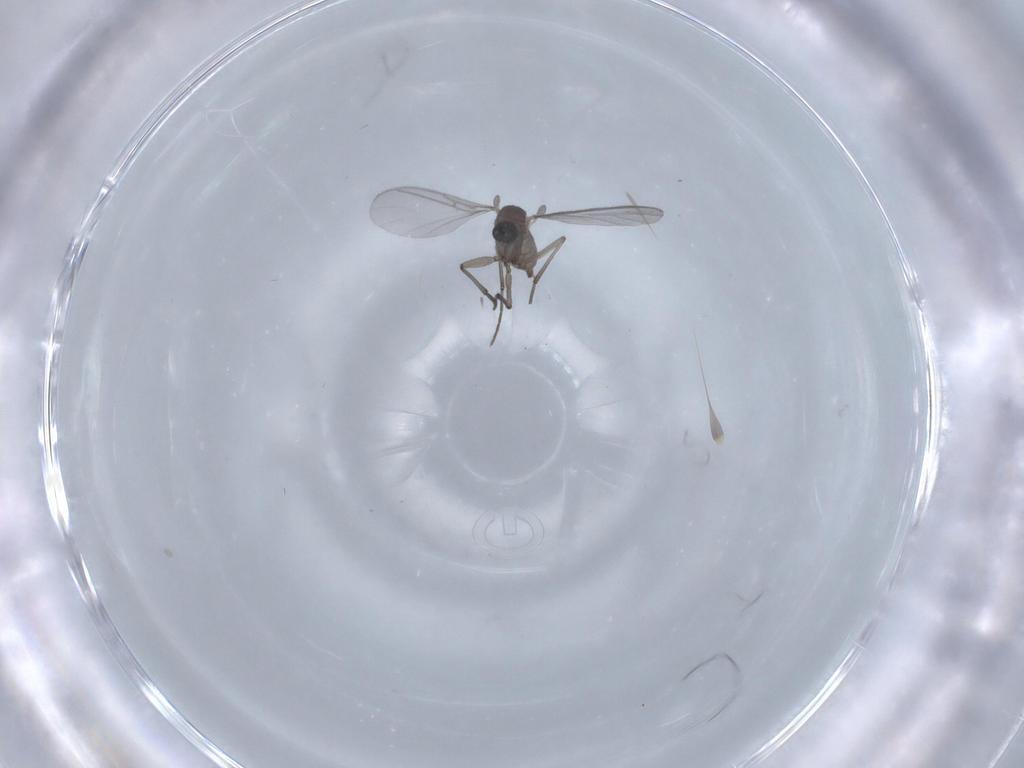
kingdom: Animalia
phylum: Arthropoda
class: Insecta
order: Diptera
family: Sciaridae
